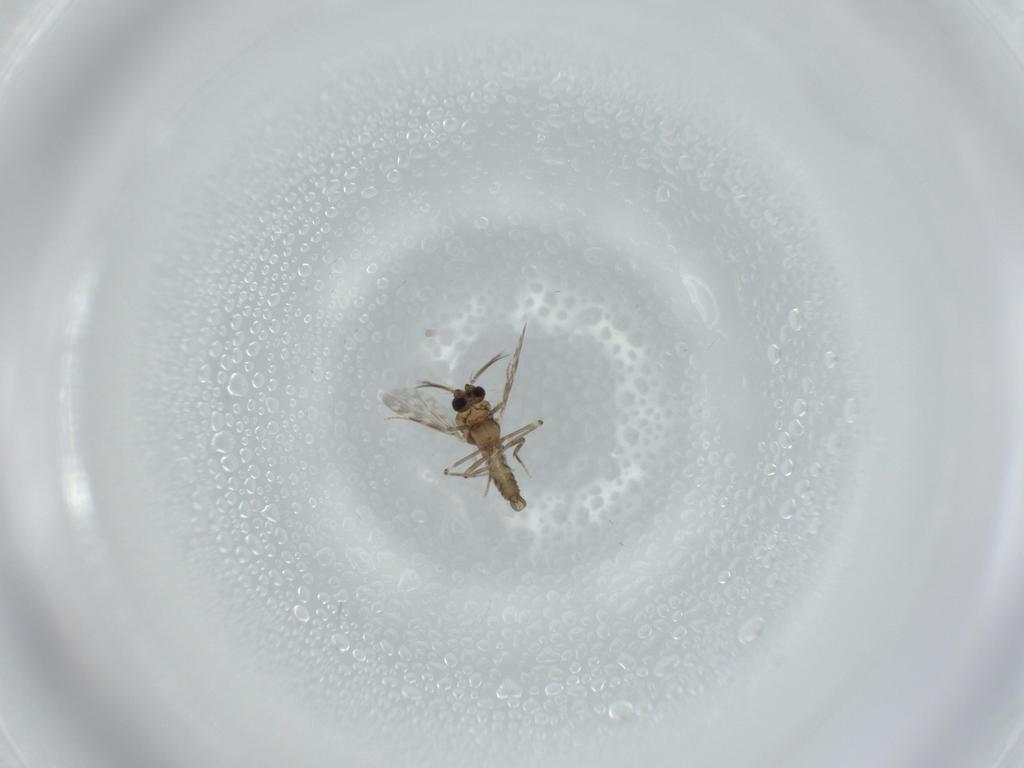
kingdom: Animalia
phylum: Arthropoda
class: Insecta
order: Diptera
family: Ceratopogonidae
